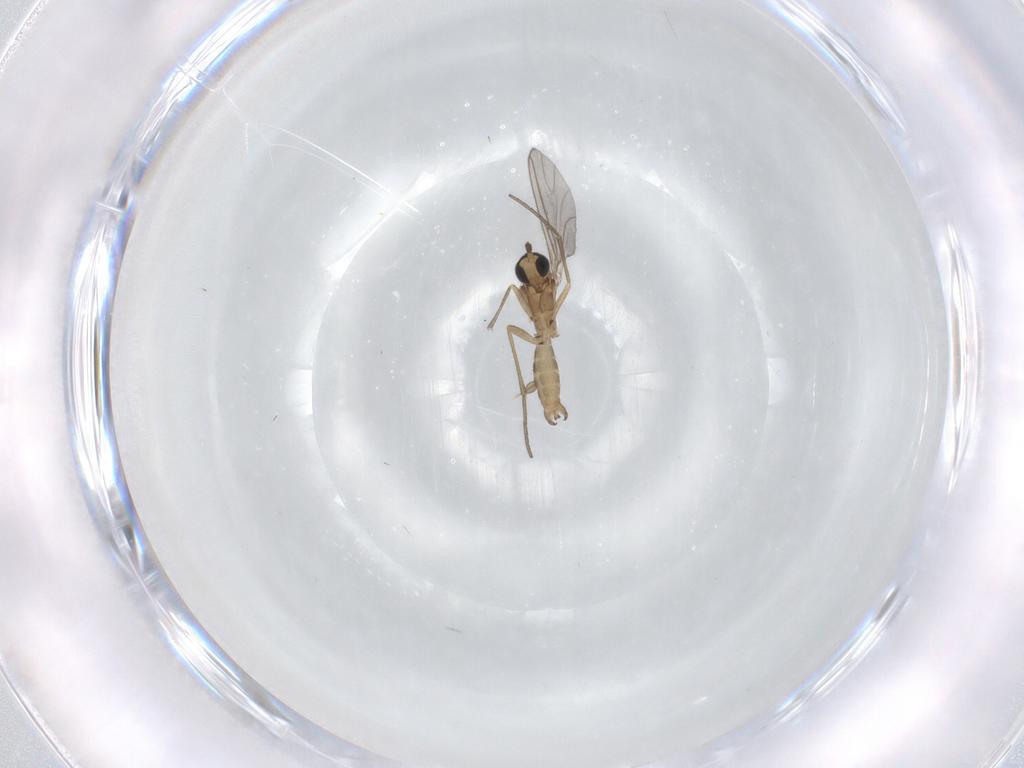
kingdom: Animalia
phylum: Arthropoda
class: Insecta
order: Diptera
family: Sciaridae
